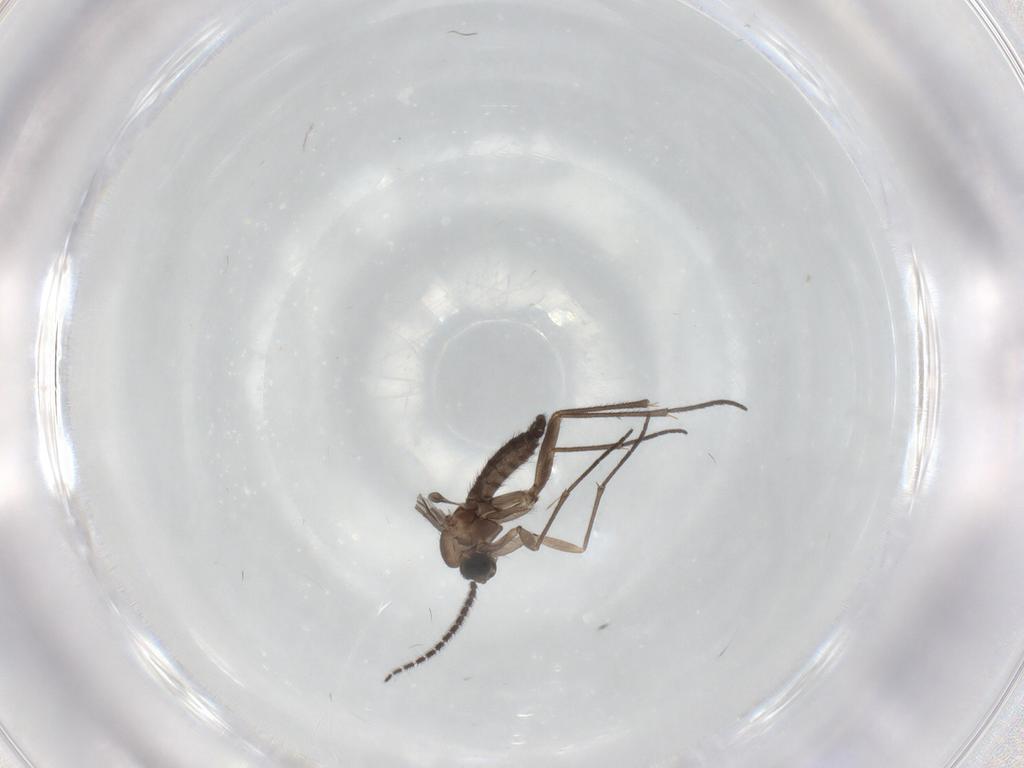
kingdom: Animalia
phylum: Arthropoda
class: Insecta
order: Diptera
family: Sciaridae
